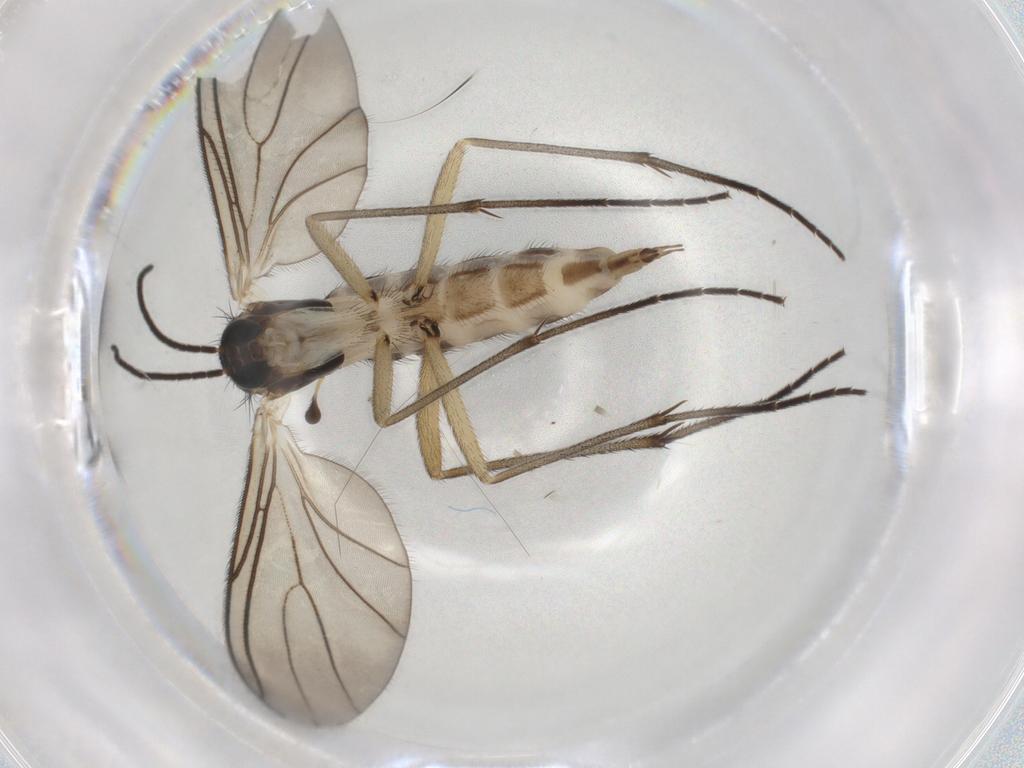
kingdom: Animalia
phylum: Arthropoda
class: Insecta
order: Diptera
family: Sciaridae
